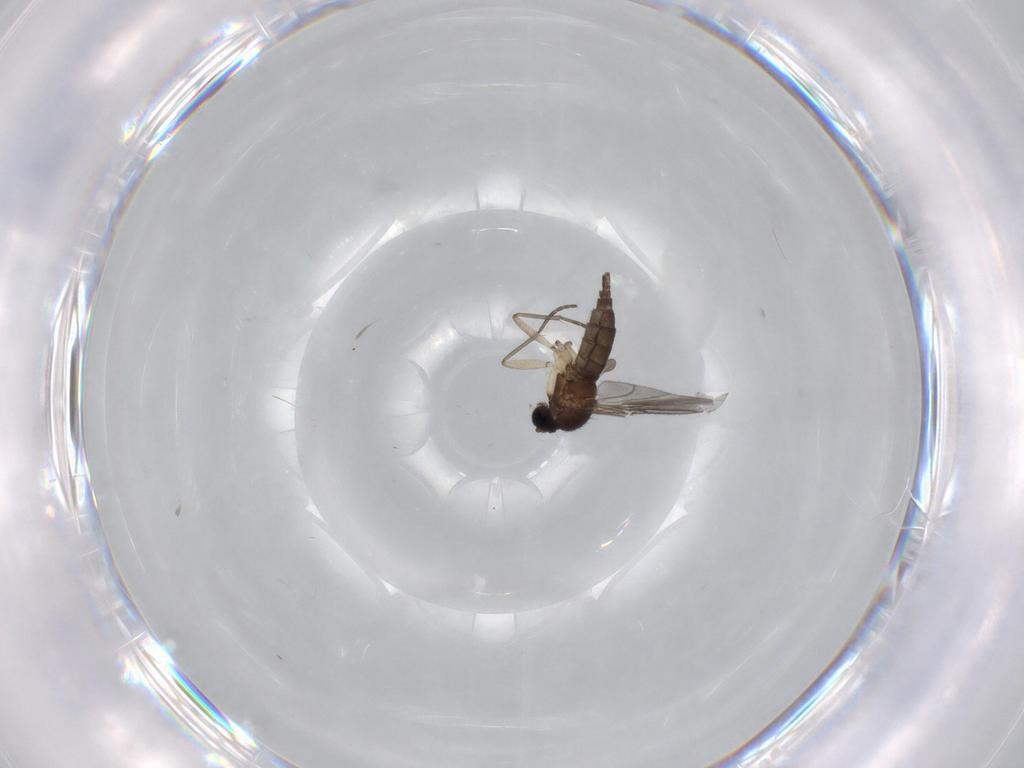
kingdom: Animalia
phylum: Arthropoda
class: Insecta
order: Diptera
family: Sciaridae
